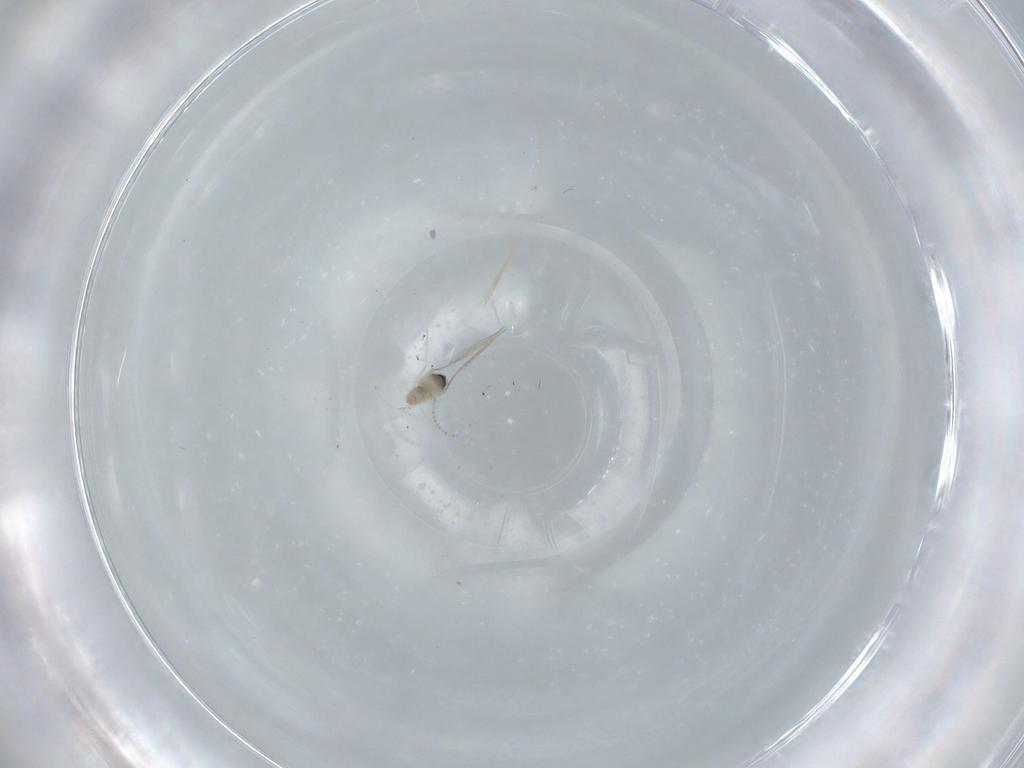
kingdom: Animalia
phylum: Arthropoda
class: Insecta
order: Diptera
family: Cecidomyiidae
